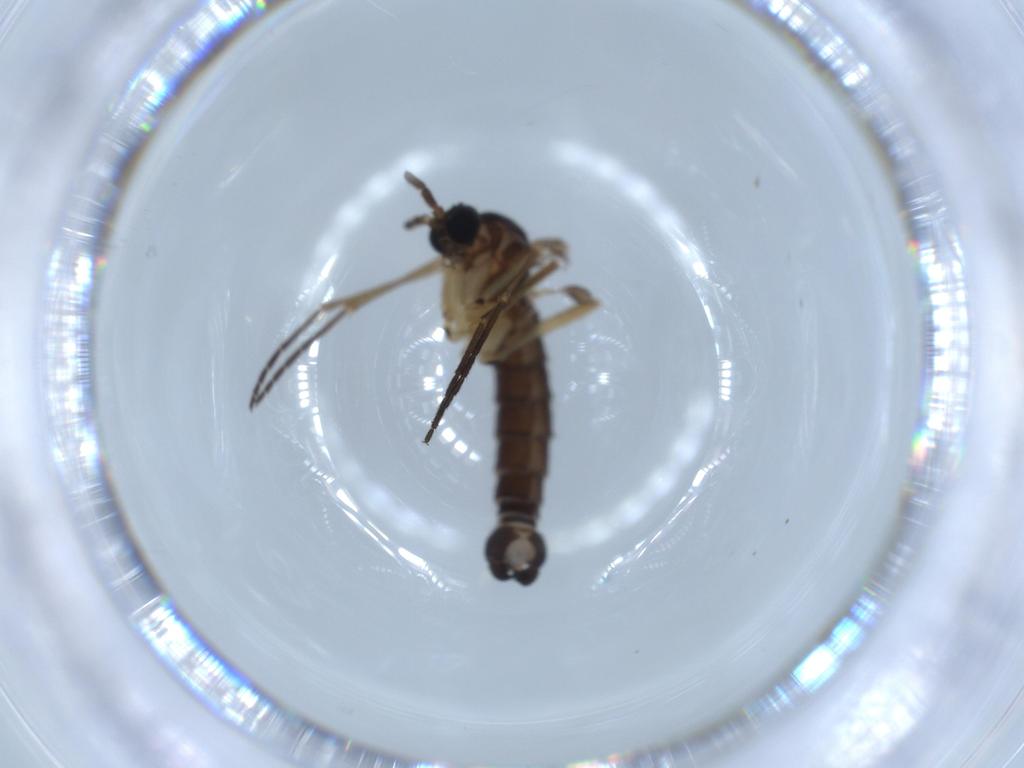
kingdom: Animalia
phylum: Arthropoda
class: Insecta
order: Diptera
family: Sciaridae
